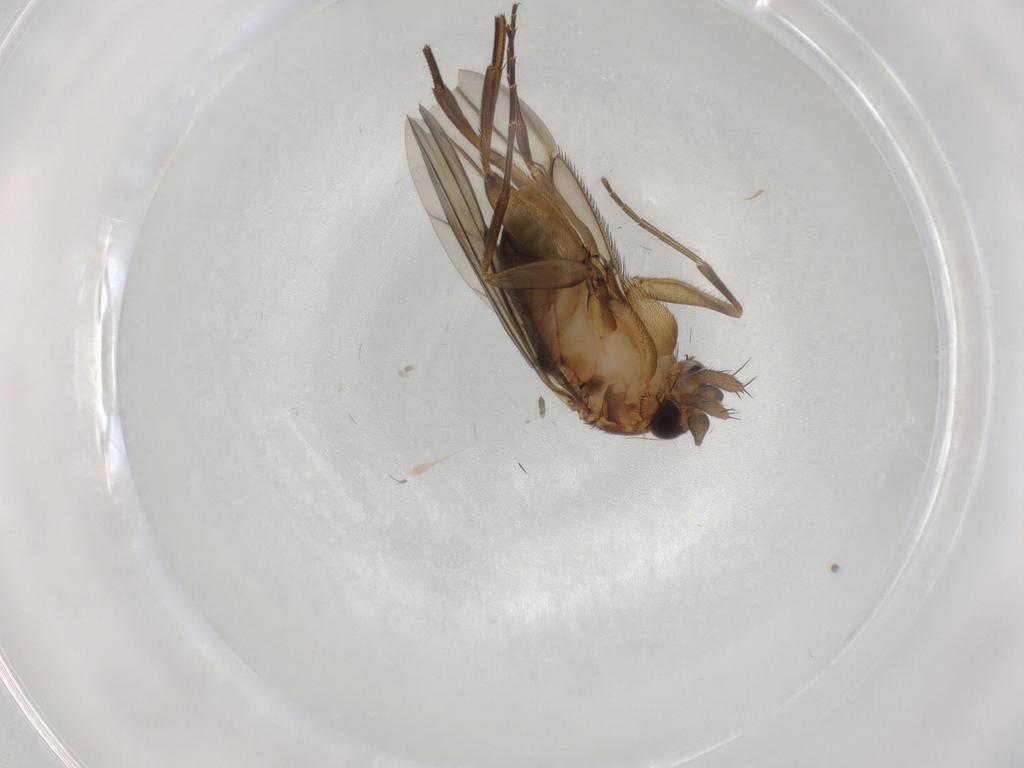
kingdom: Animalia
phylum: Arthropoda
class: Insecta
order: Diptera
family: Phoridae
